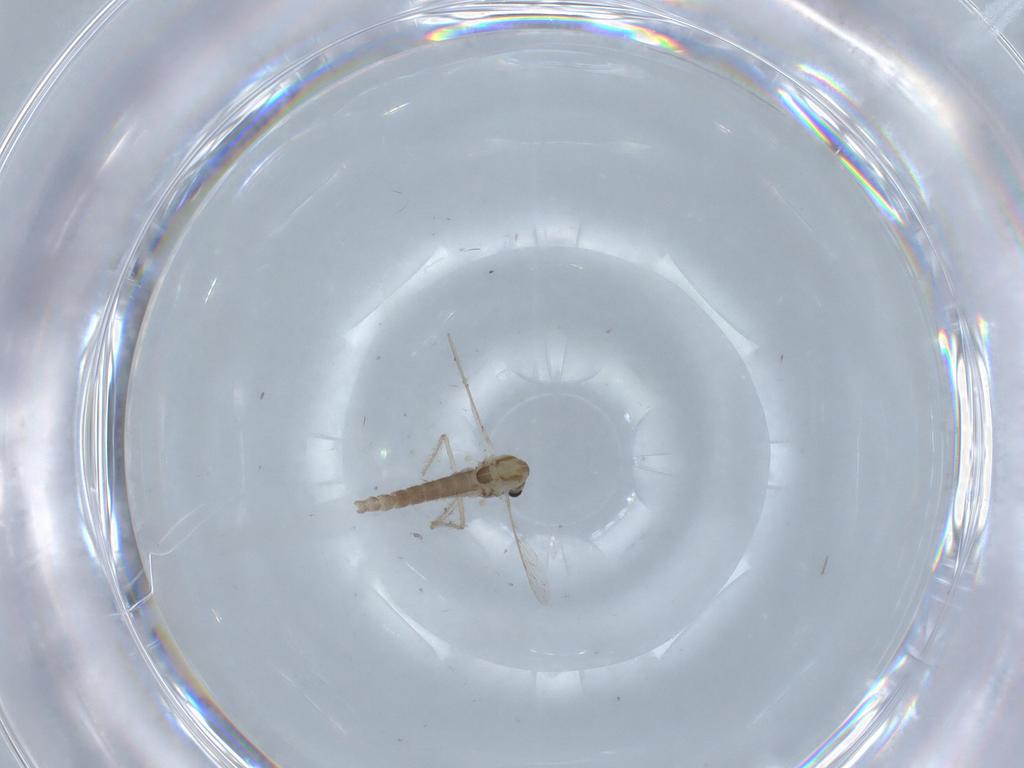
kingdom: Animalia
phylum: Arthropoda
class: Insecta
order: Diptera
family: Chironomidae
